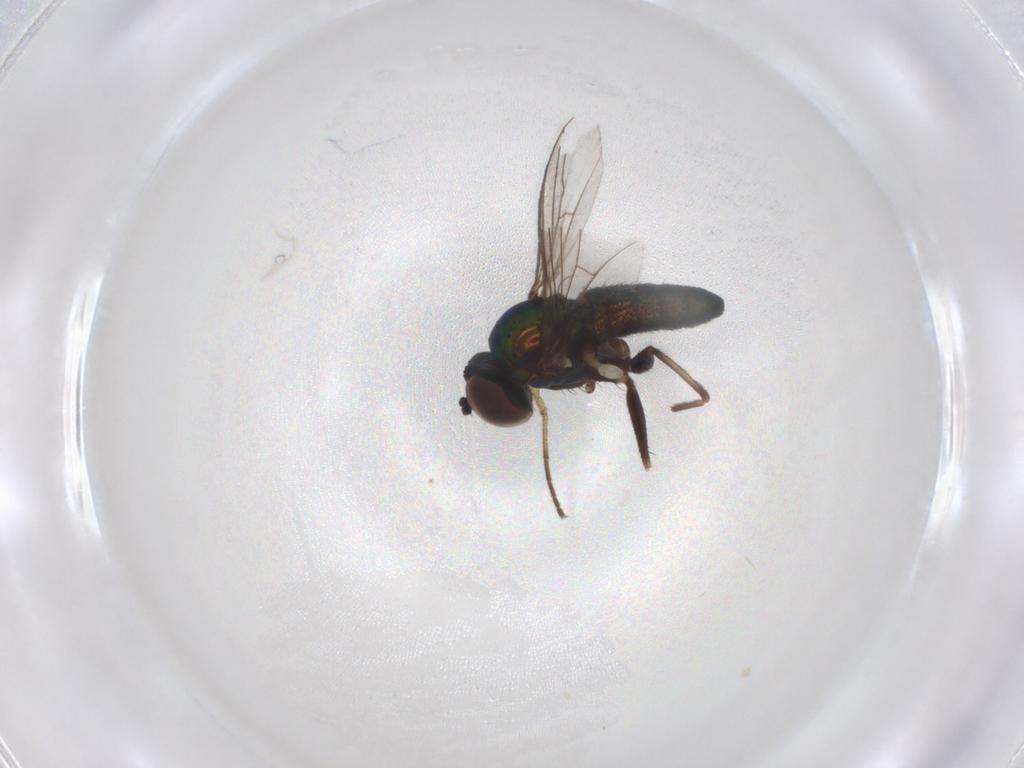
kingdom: Animalia
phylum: Arthropoda
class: Insecta
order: Diptera
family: Dolichopodidae
